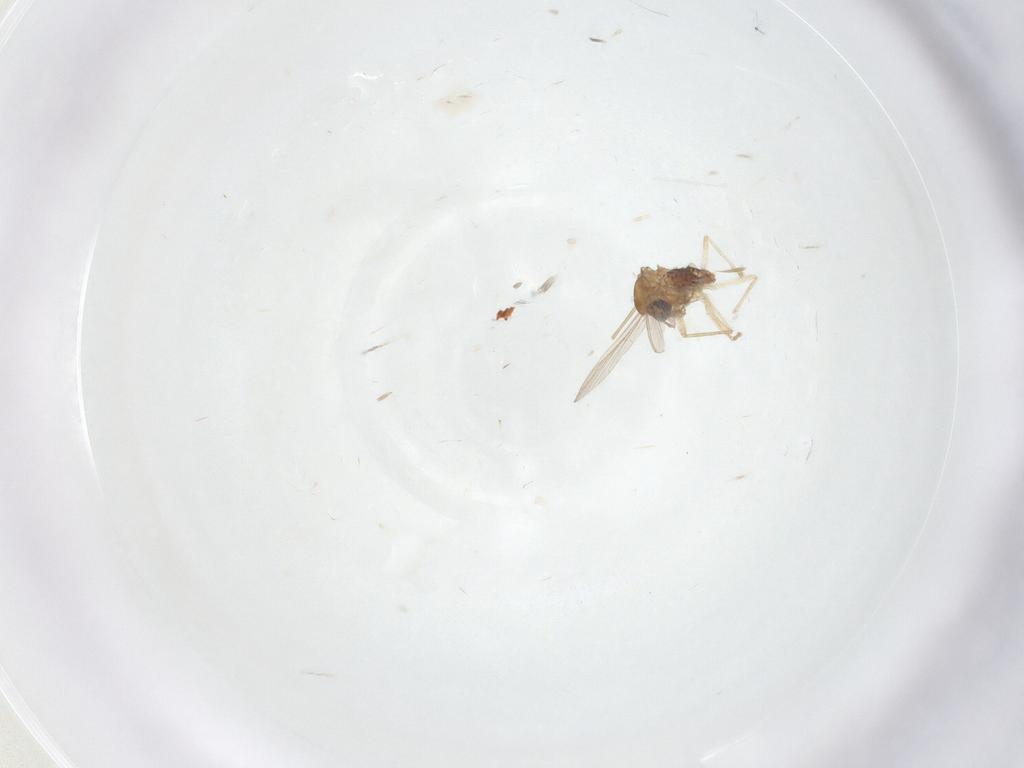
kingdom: Animalia
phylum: Arthropoda
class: Insecta
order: Diptera
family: Chironomidae
